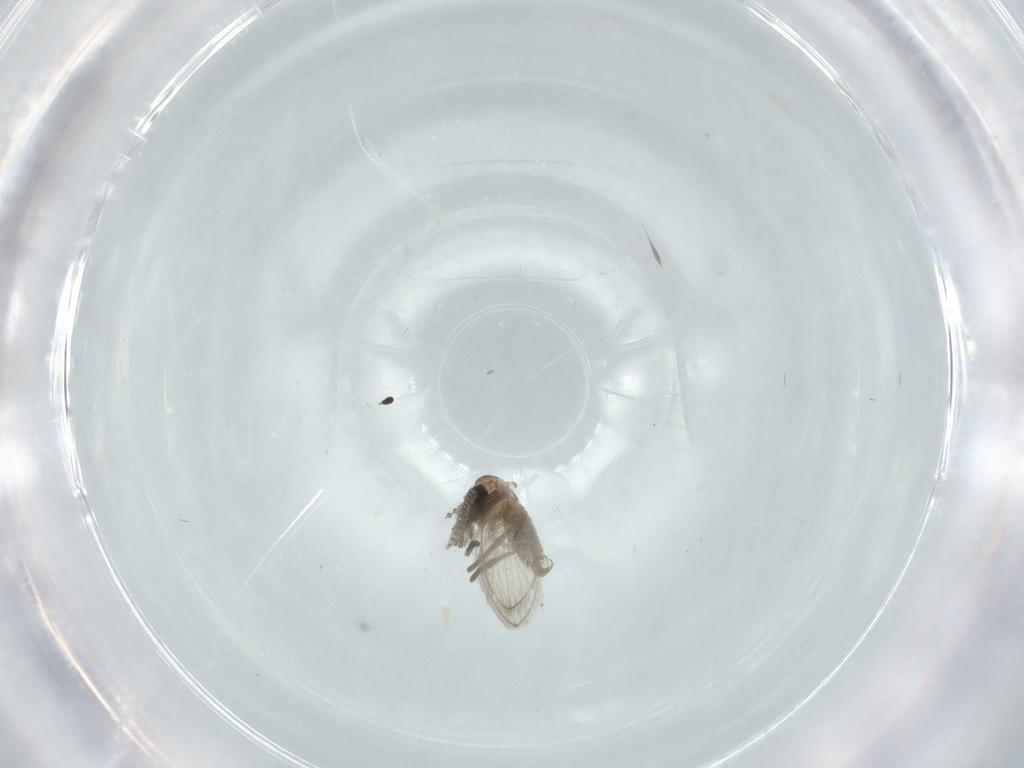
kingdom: Animalia
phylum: Arthropoda
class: Insecta
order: Diptera
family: Psychodidae
